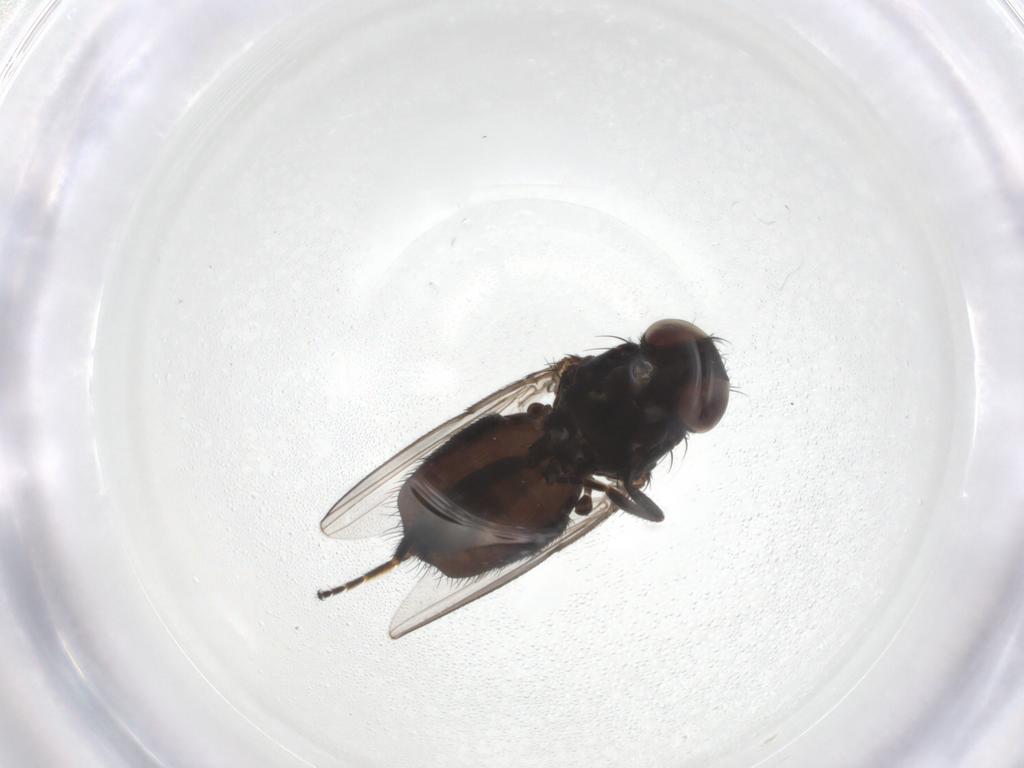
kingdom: Animalia
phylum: Arthropoda
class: Insecta
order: Diptera
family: Milichiidae
